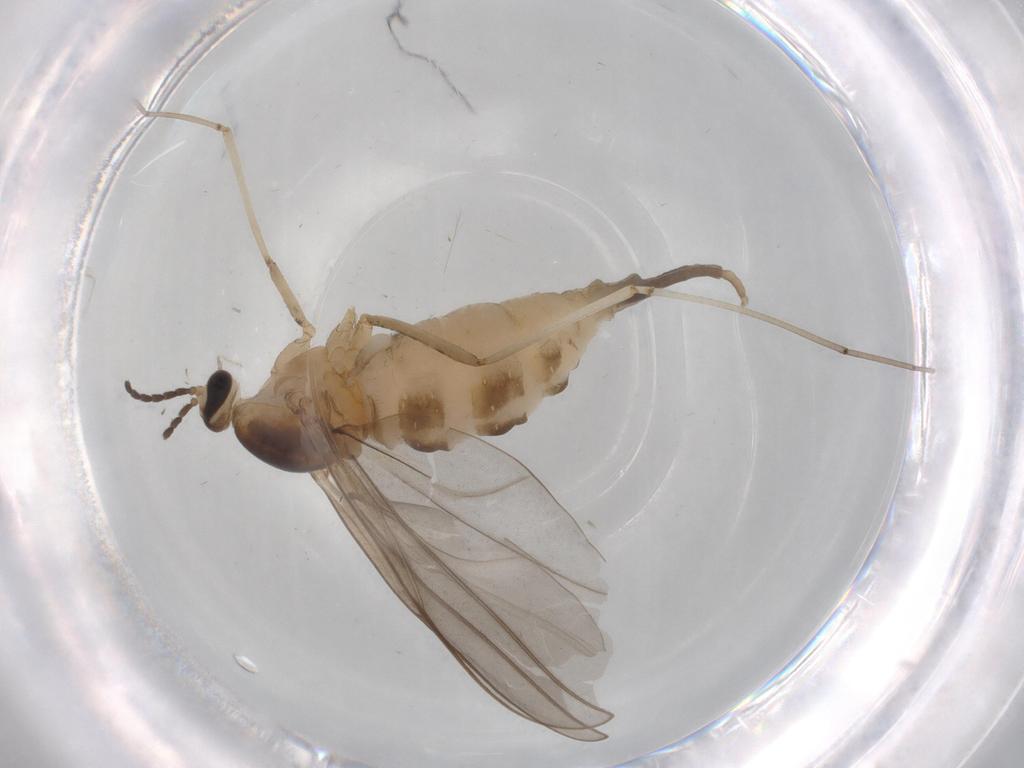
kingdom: Animalia
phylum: Arthropoda
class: Insecta
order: Diptera
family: Cecidomyiidae
